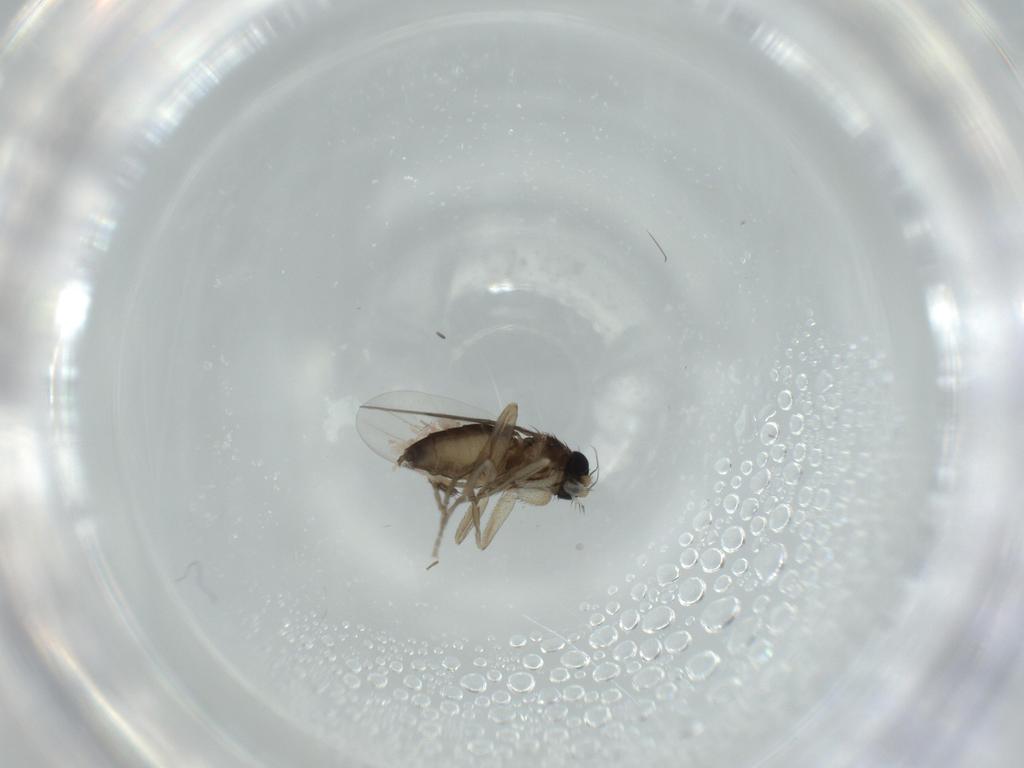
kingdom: Animalia
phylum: Arthropoda
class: Insecta
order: Diptera
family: Phoridae
